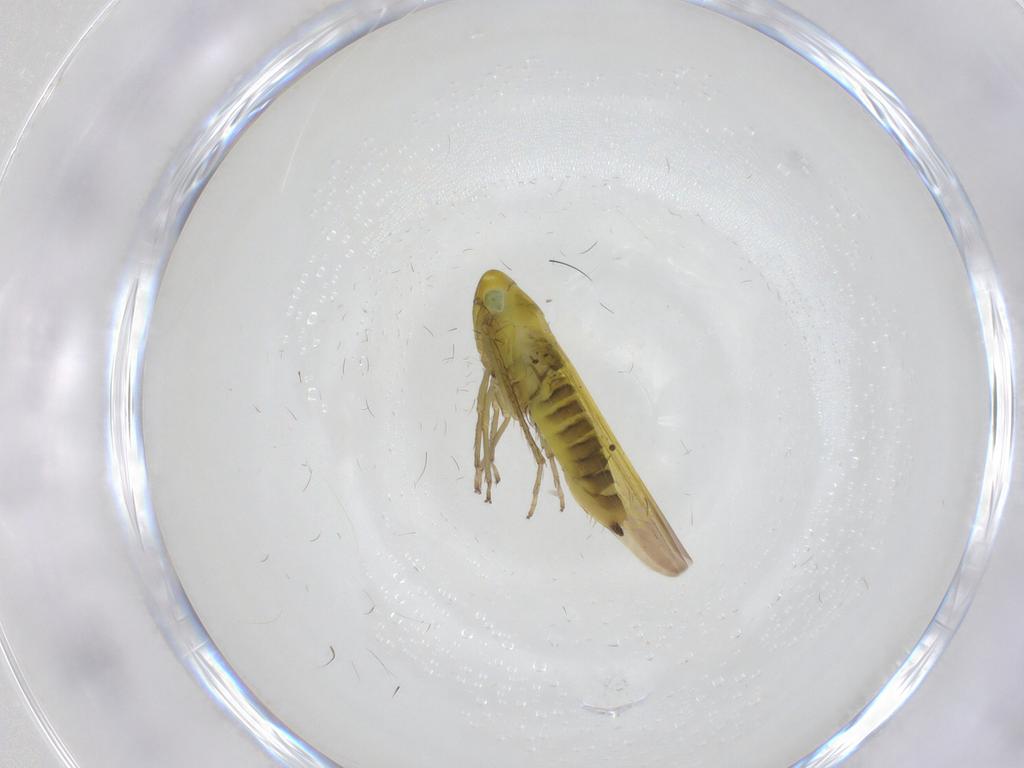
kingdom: Animalia
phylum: Arthropoda
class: Insecta
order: Hemiptera
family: Cicadellidae
